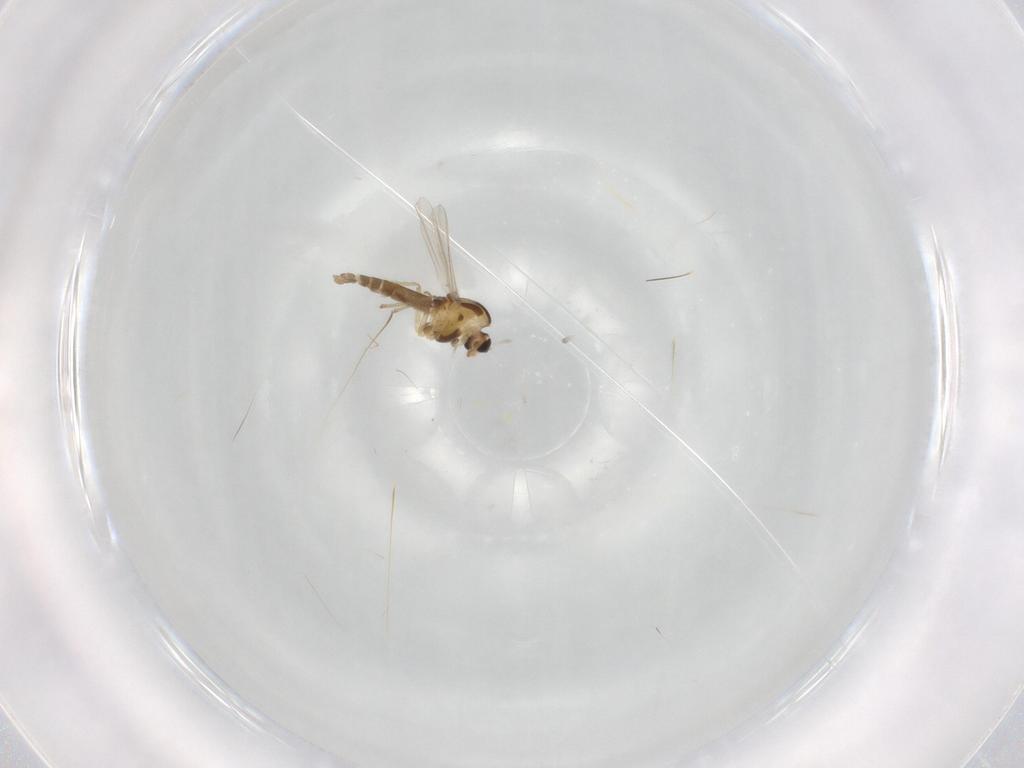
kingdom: Animalia
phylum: Arthropoda
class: Insecta
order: Diptera
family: Chironomidae
